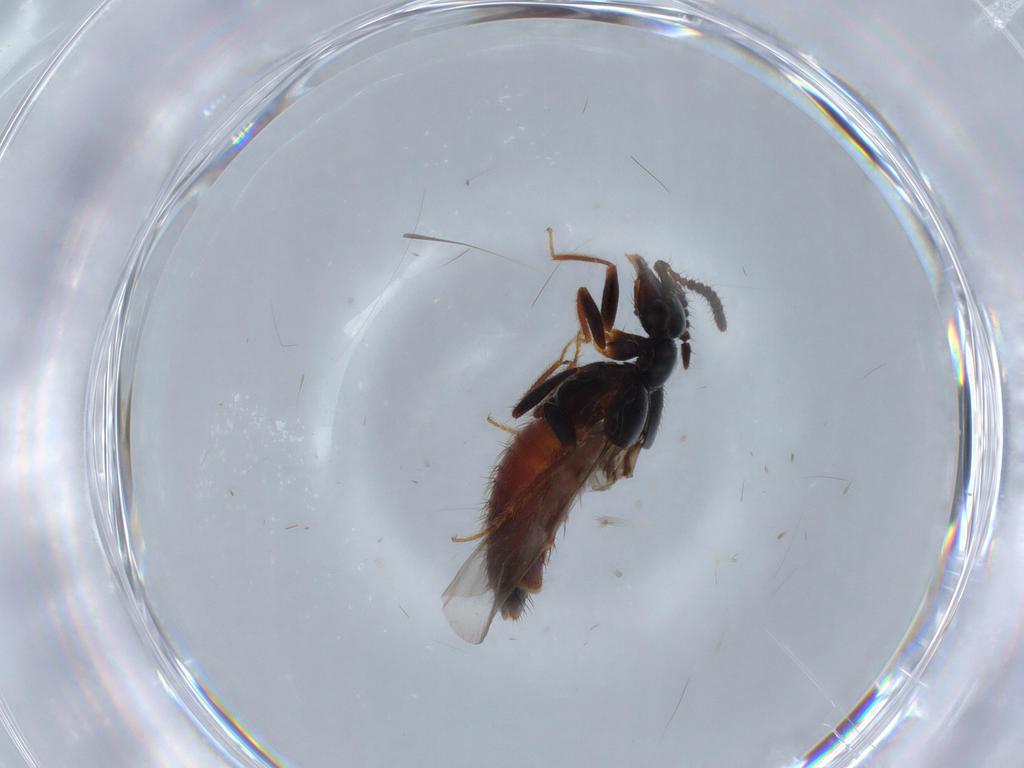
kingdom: Animalia
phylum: Arthropoda
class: Insecta
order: Coleoptera
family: Staphylinidae
